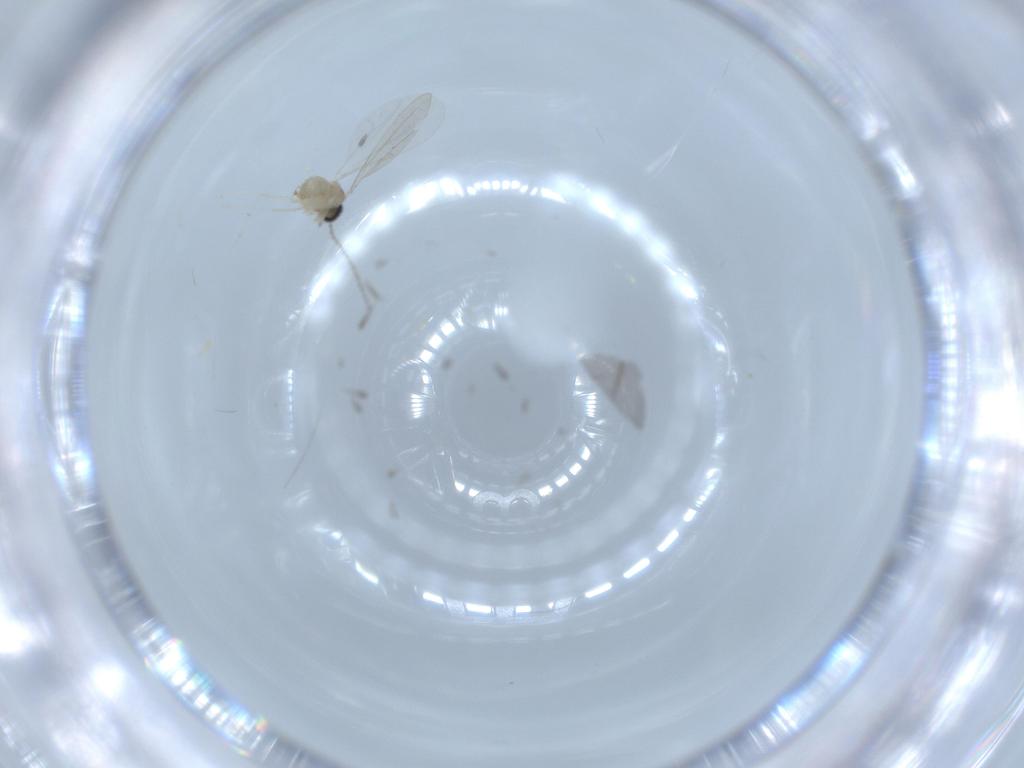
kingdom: Animalia
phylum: Arthropoda
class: Insecta
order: Diptera
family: Cecidomyiidae
